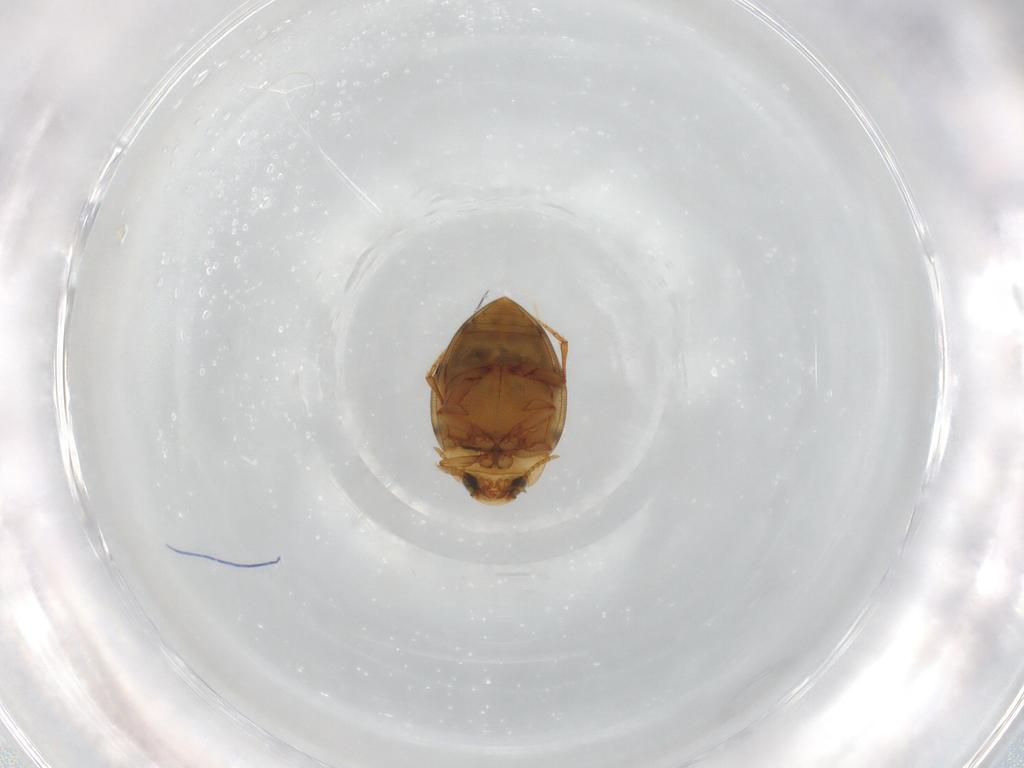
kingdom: Animalia
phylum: Arthropoda
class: Insecta
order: Coleoptera
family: Dytiscidae
